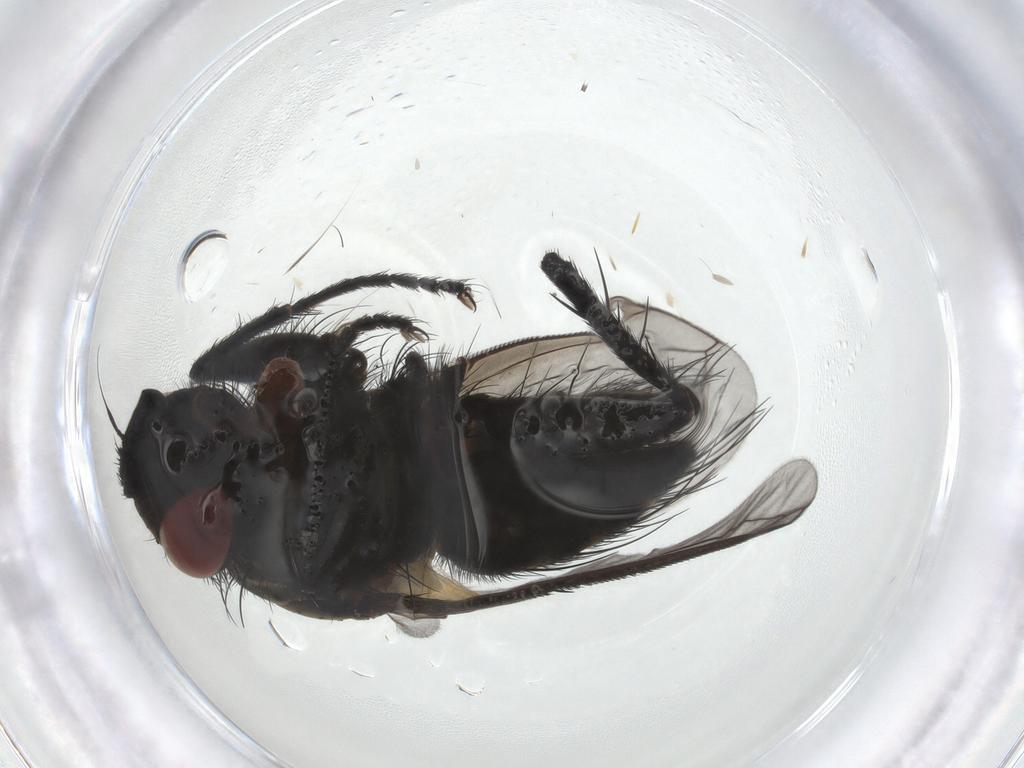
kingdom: Animalia
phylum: Arthropoda
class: Insecta
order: Diptera
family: Tachinidae
